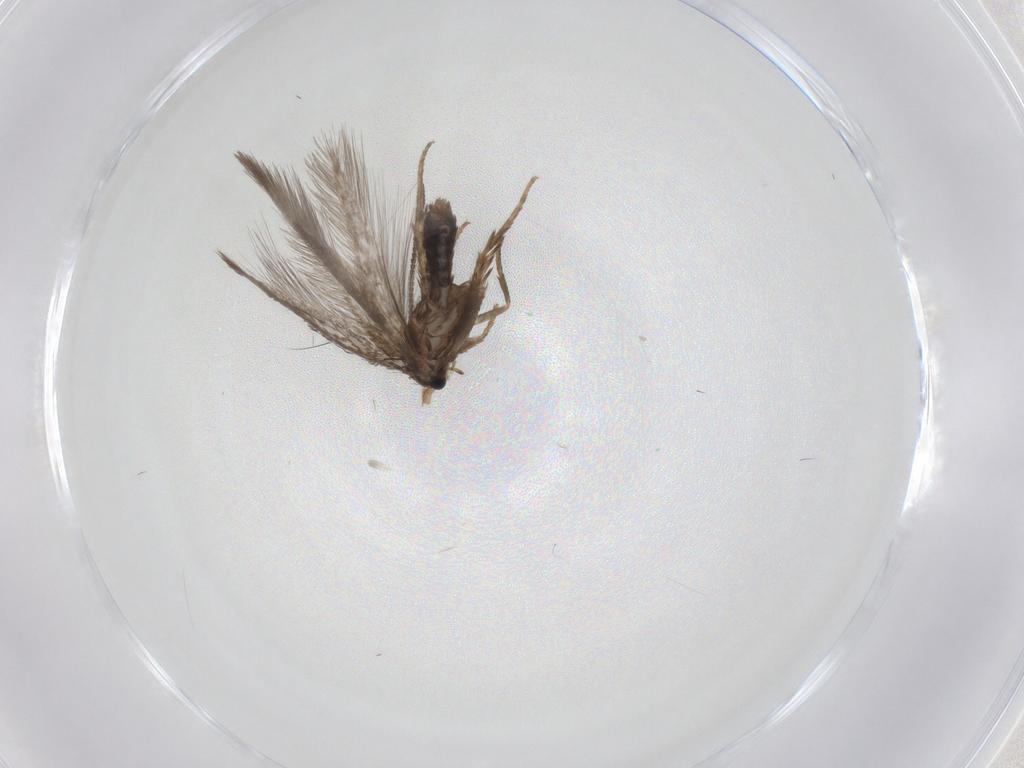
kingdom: Animalia
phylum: Arthropoda
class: Insecta
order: Lepidoptera
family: Nepticulidae
